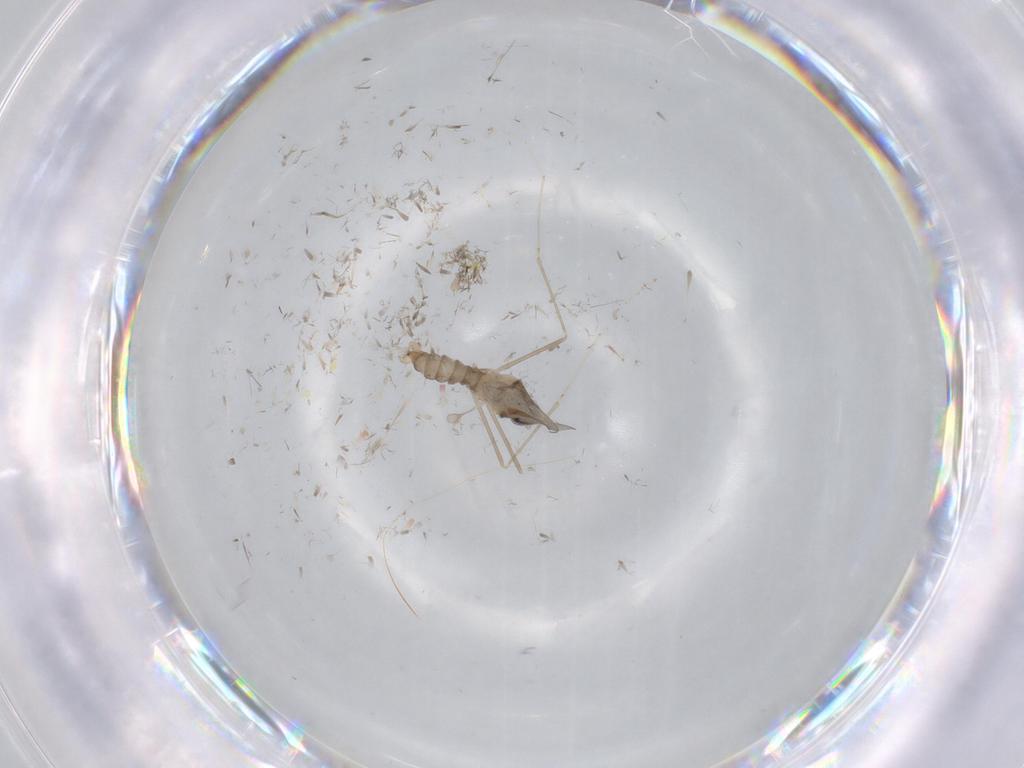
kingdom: Animalia
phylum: Arthropoda
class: Insecta
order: Diptera
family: Cecidomyiidae
